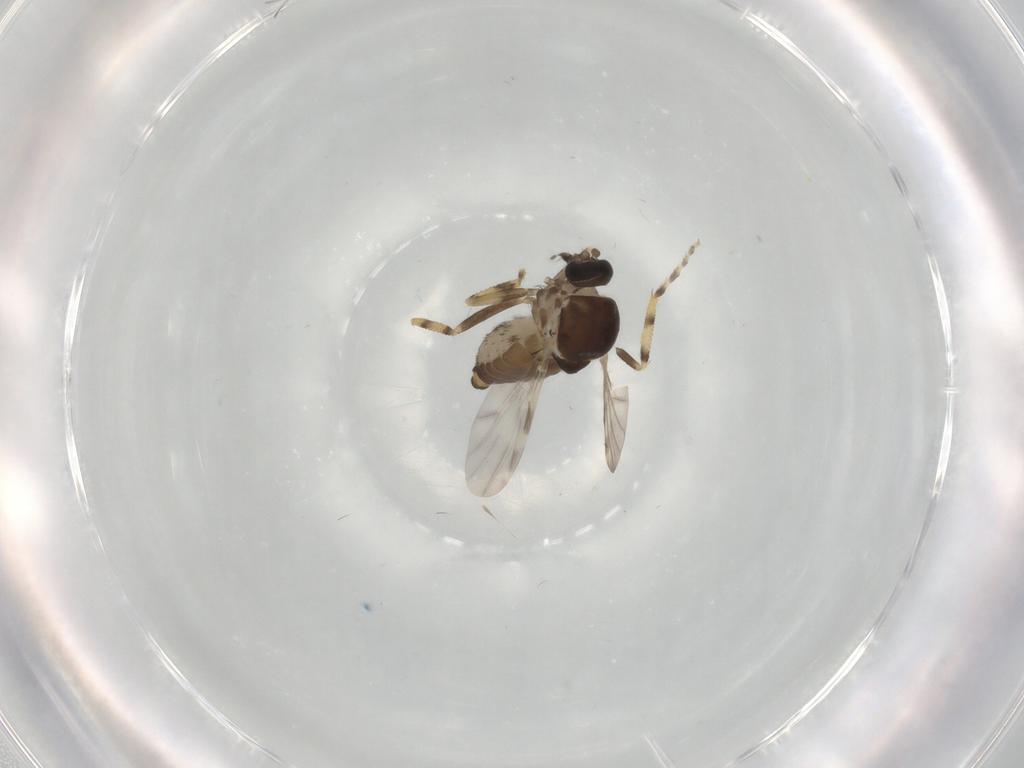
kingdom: Animalia
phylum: Arthropoda
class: Insecta
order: Diptera
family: Ceratopogonidae
